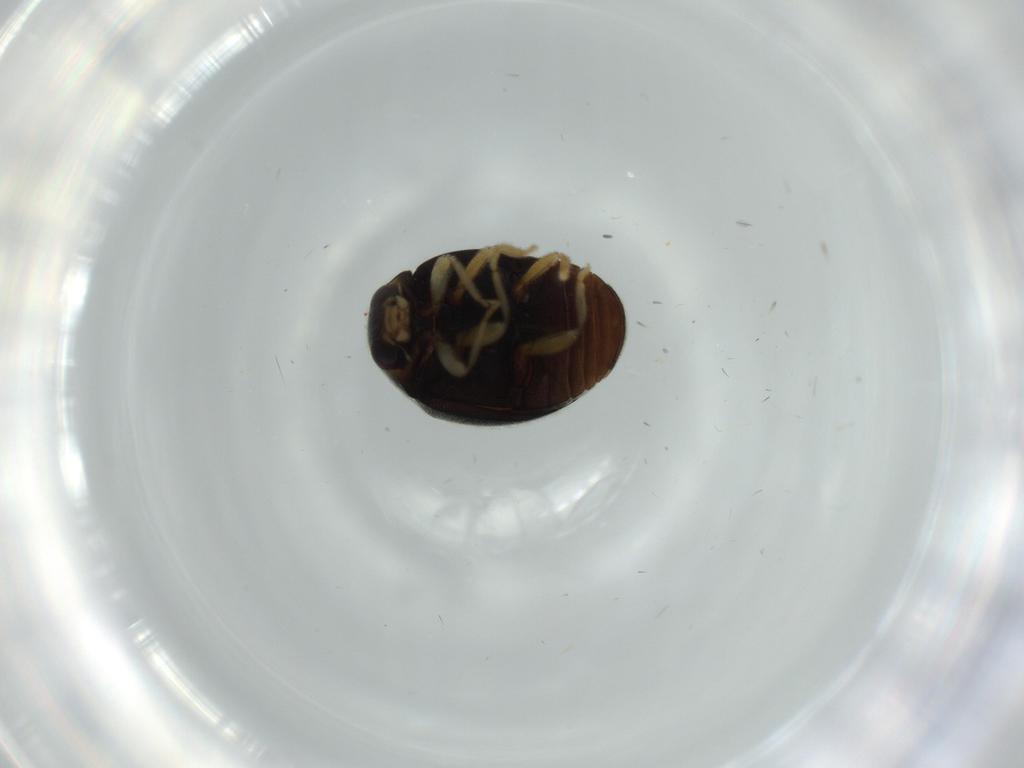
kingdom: Animalia
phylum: Arthropoda
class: Insecta
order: Coleoptera
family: Coccinellidae
